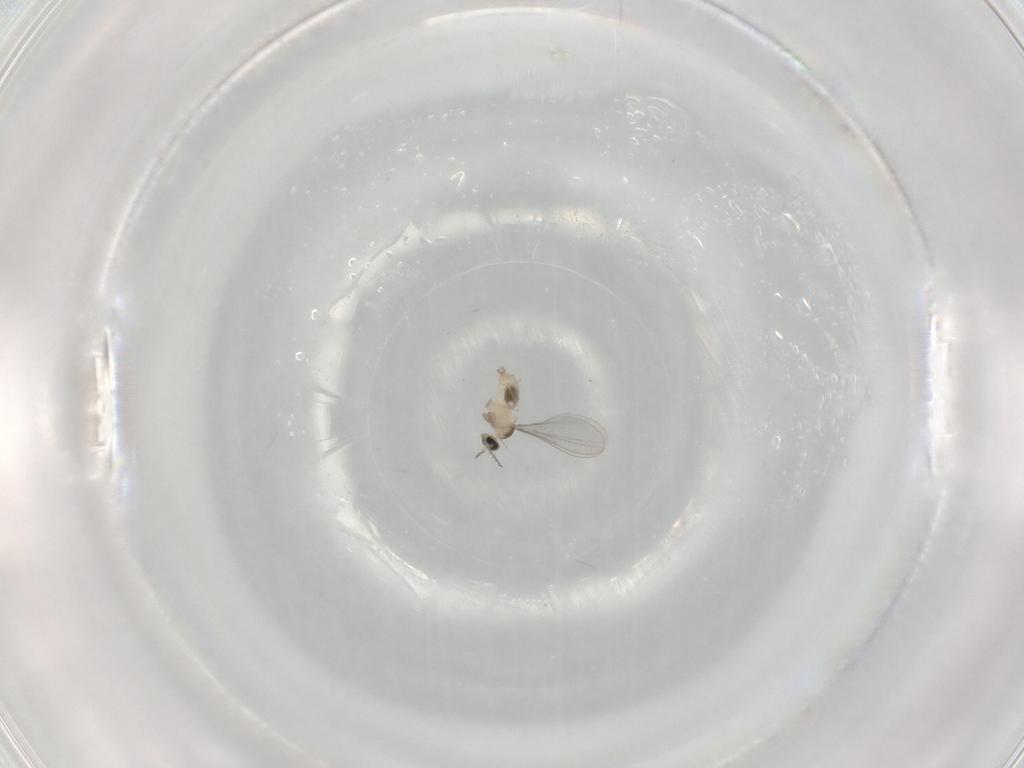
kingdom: Animalia
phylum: Arthropoda
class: Insecta
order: Diptera
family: Cecidomyiidae
